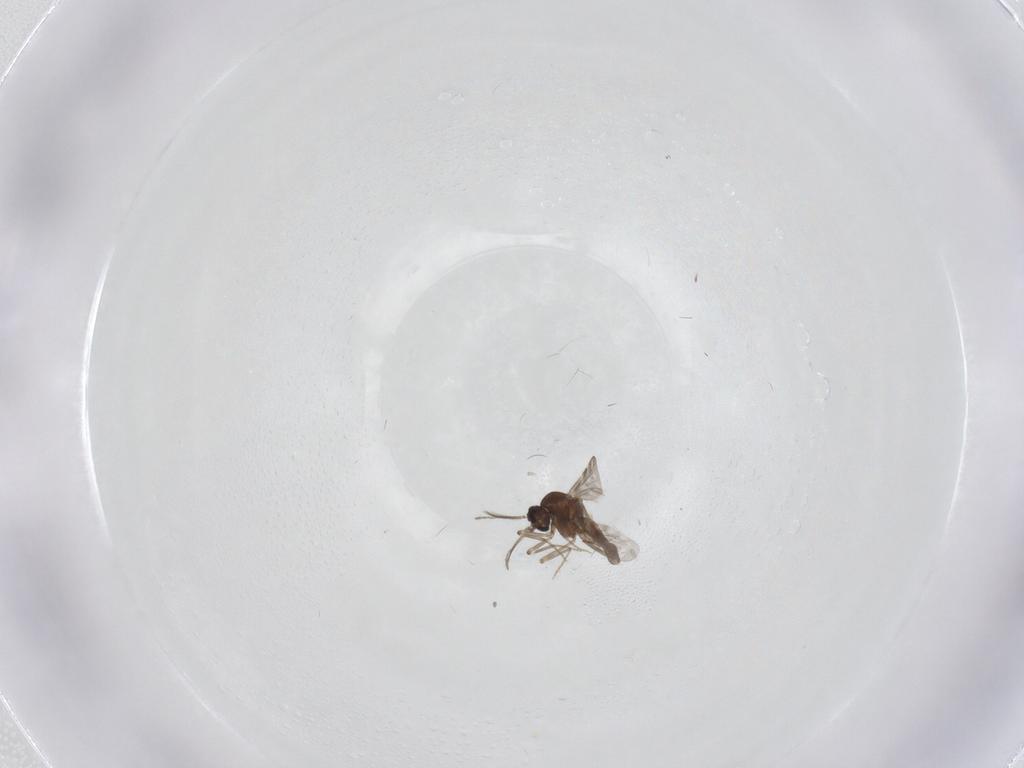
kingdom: Animalia
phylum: Arthropoda
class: Insecta
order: Diptera
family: Ceratopogonidae
